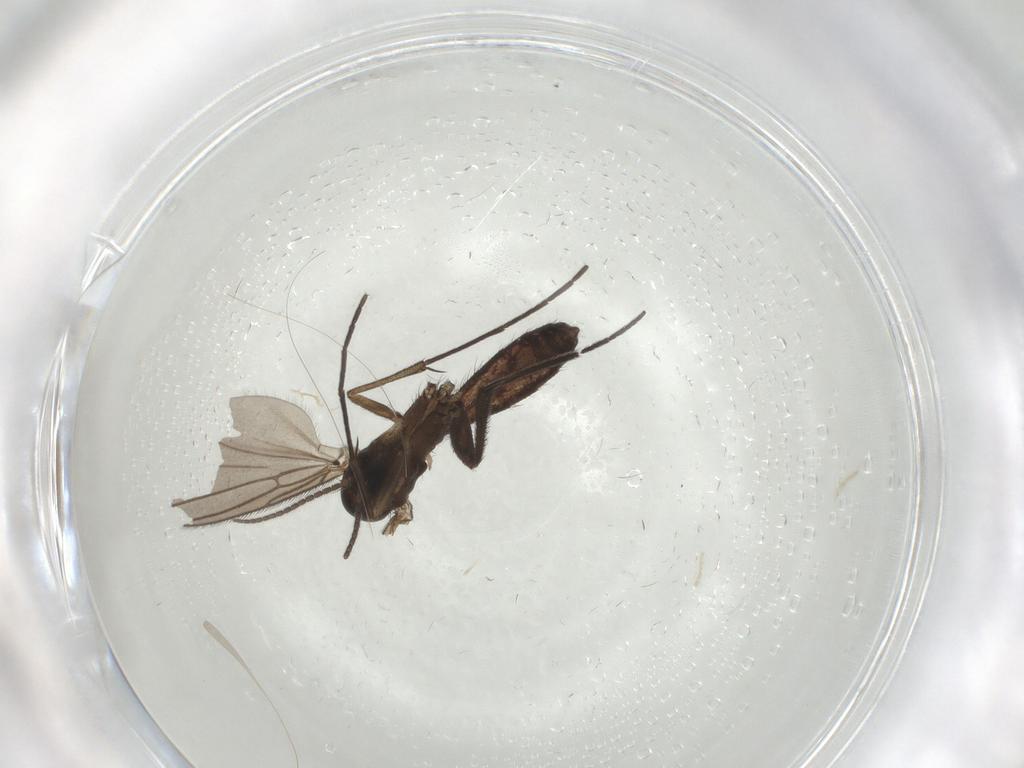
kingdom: Animalia
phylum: Arthropoda
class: Insecta
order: Diptera
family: Mycetophilidae
